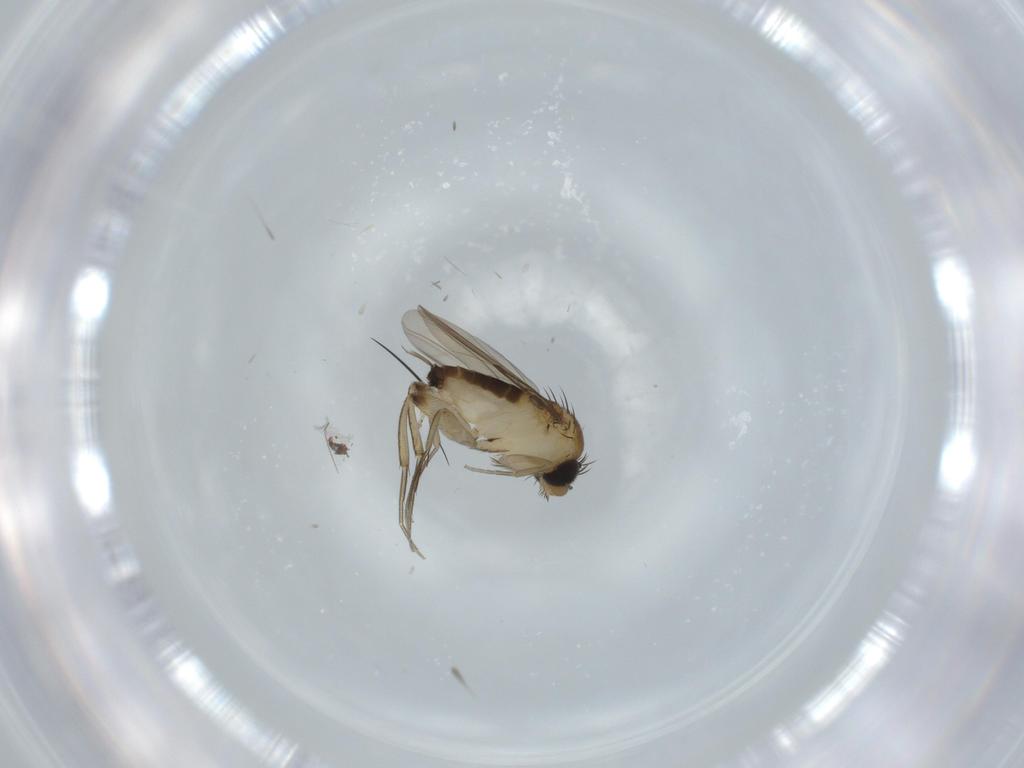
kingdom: Animalia
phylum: Arthropoda
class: Insecta
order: Diptera
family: Phoridae
